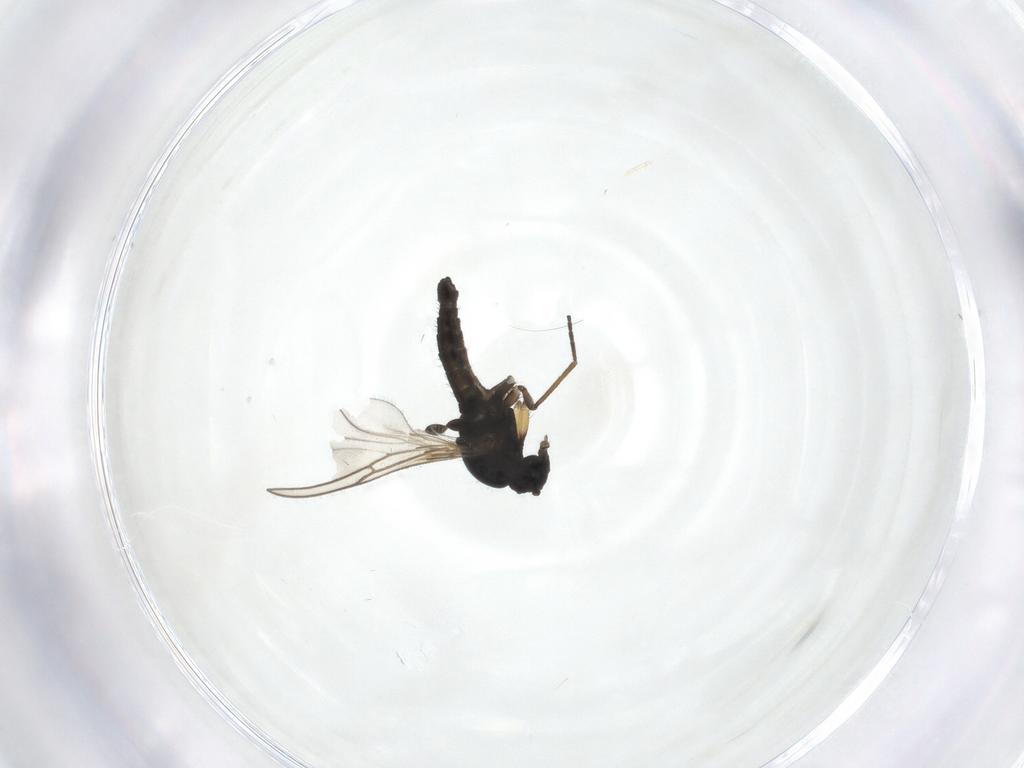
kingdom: Animalia
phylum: Arthropoda
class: Insecta
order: Diptera
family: Sciaridae
